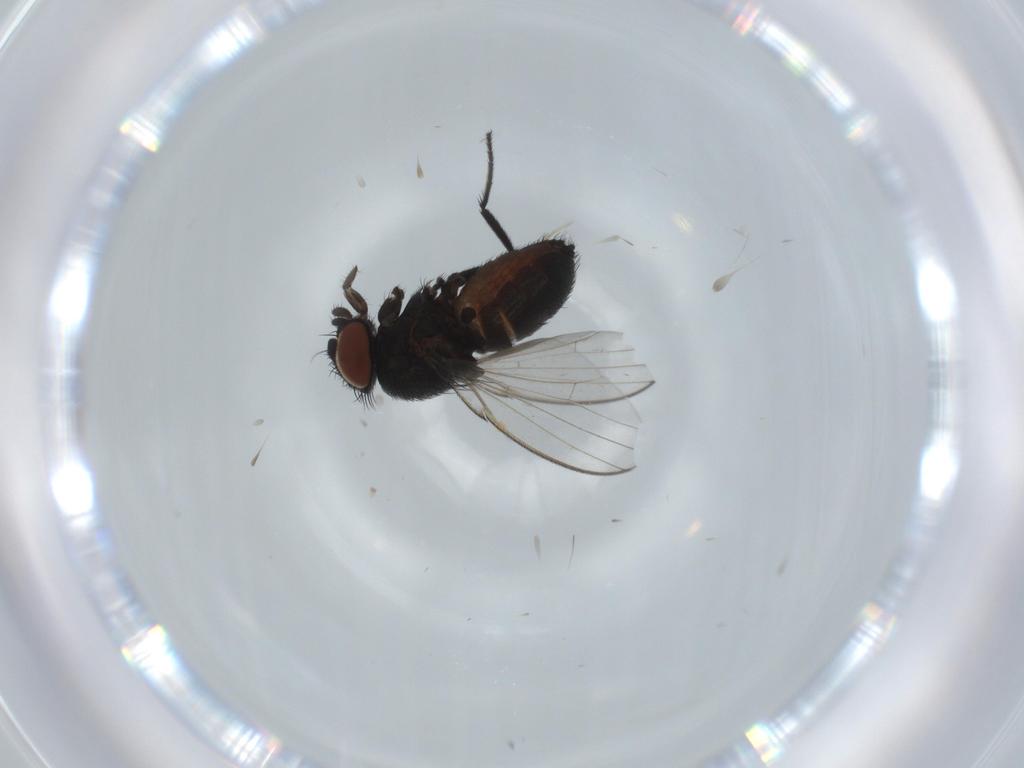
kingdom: Animalia
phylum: Arthropoda
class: Insecta
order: Diptera
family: Milichiidae
